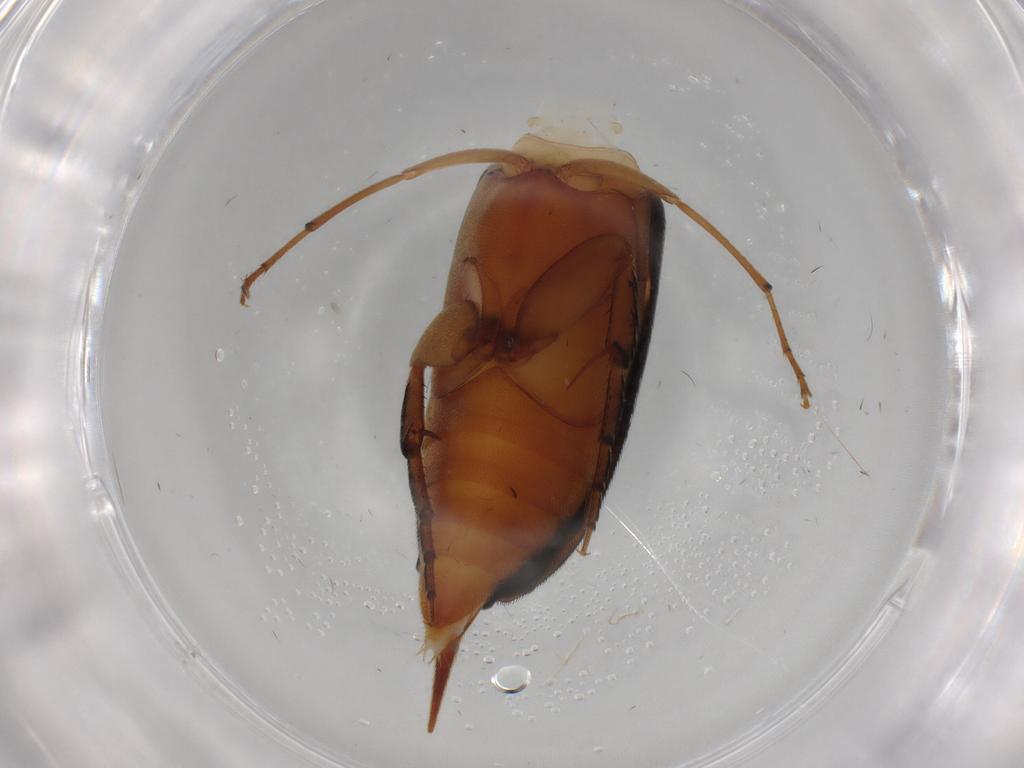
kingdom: Animalia
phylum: Arthropoda
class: Insecta
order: Coleoptera
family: Mordellidae
